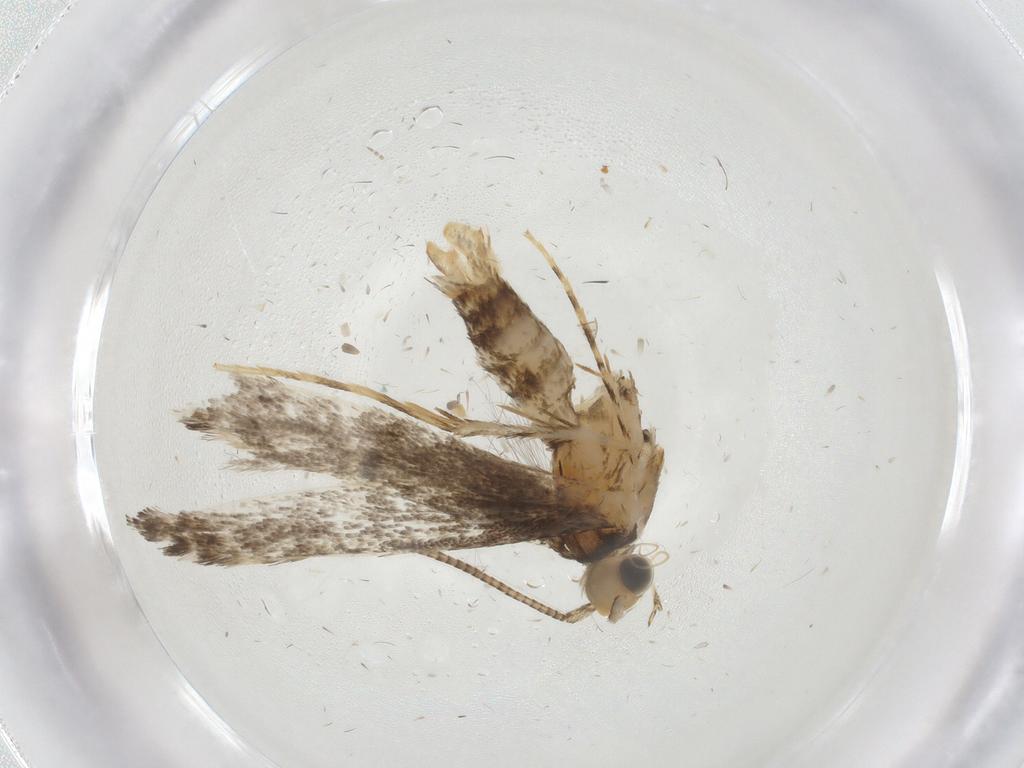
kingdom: Animalia
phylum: Arthropoda
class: Insecta
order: Lepidoptera
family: Gracillariidae
